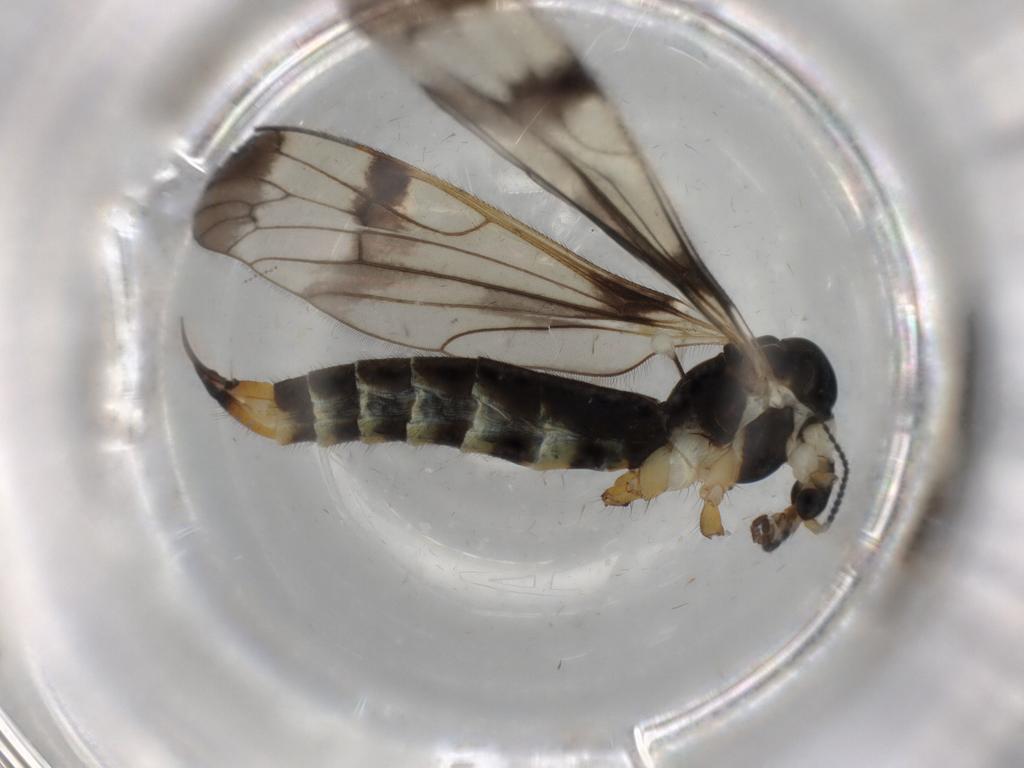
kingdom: Animalia
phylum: Arthropoda
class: Insecta
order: Diptera
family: Limoniidae
